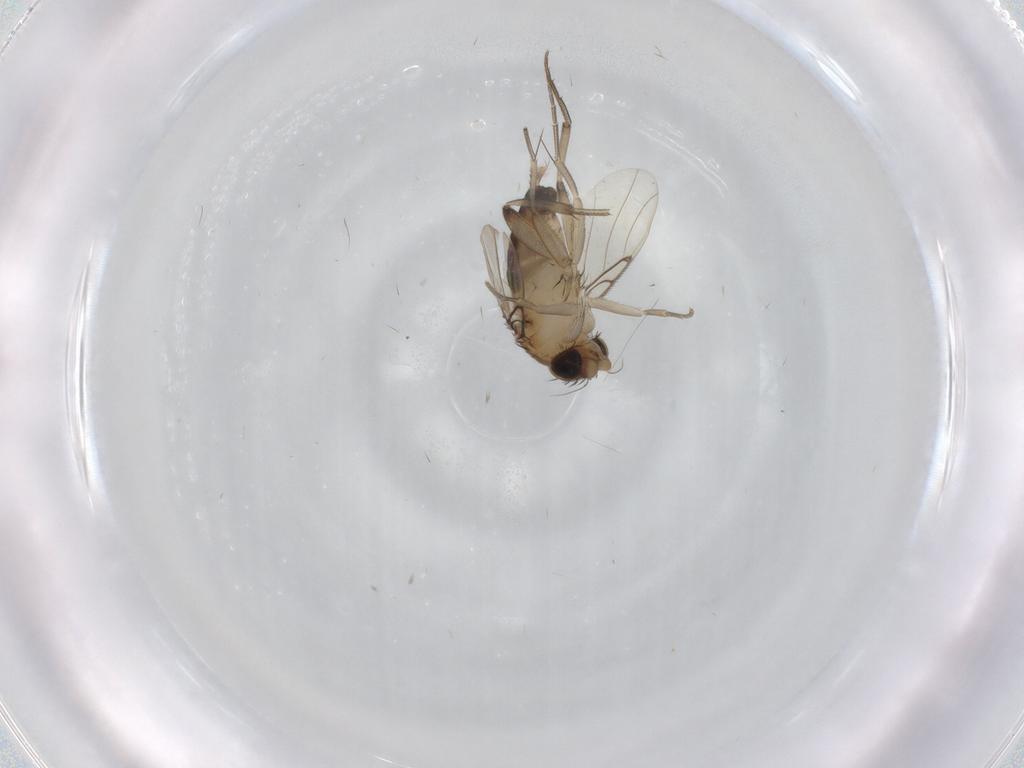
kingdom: Animalia
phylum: Arthropoda
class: Insecta
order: Diptera
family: Phoridae
